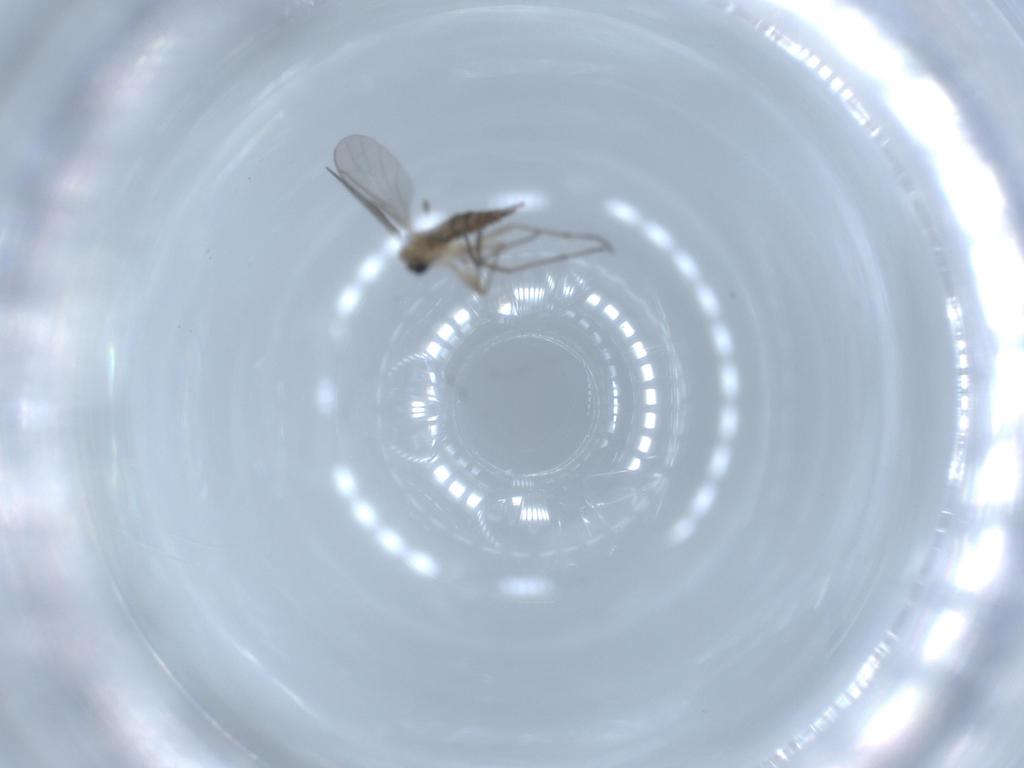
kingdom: Animalia
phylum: Arthropoda
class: Insecta
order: Diptera
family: Sciaridae
